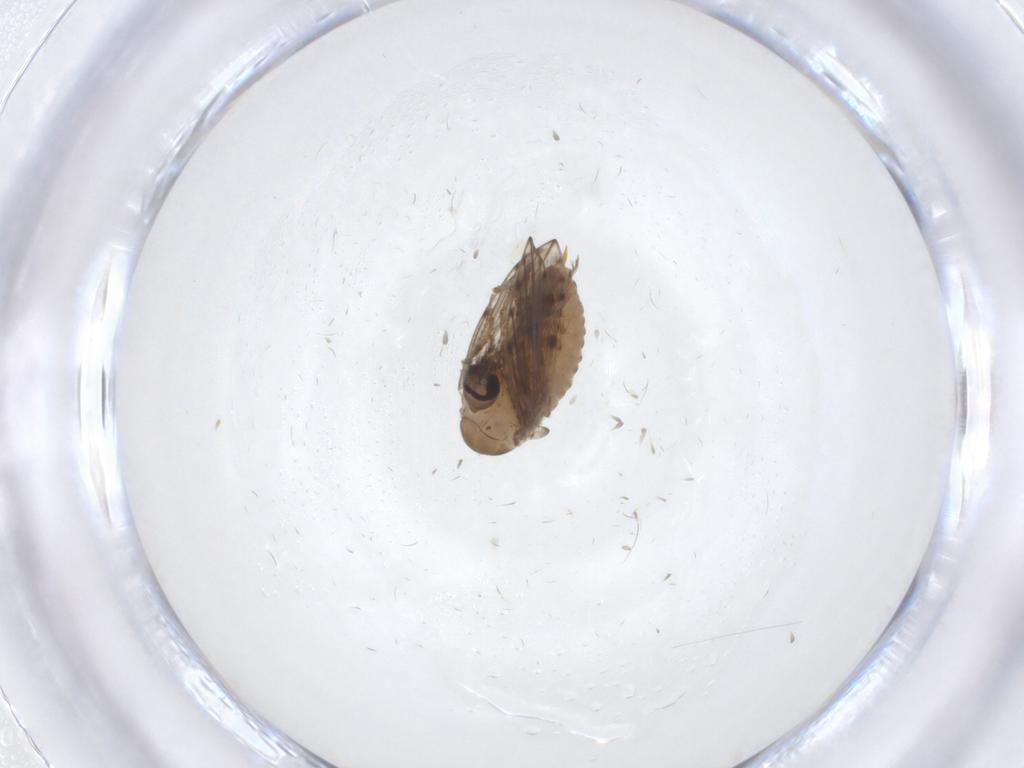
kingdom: Animalia
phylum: Arthropoda
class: Insecta
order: Diptera
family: Psychodidae
